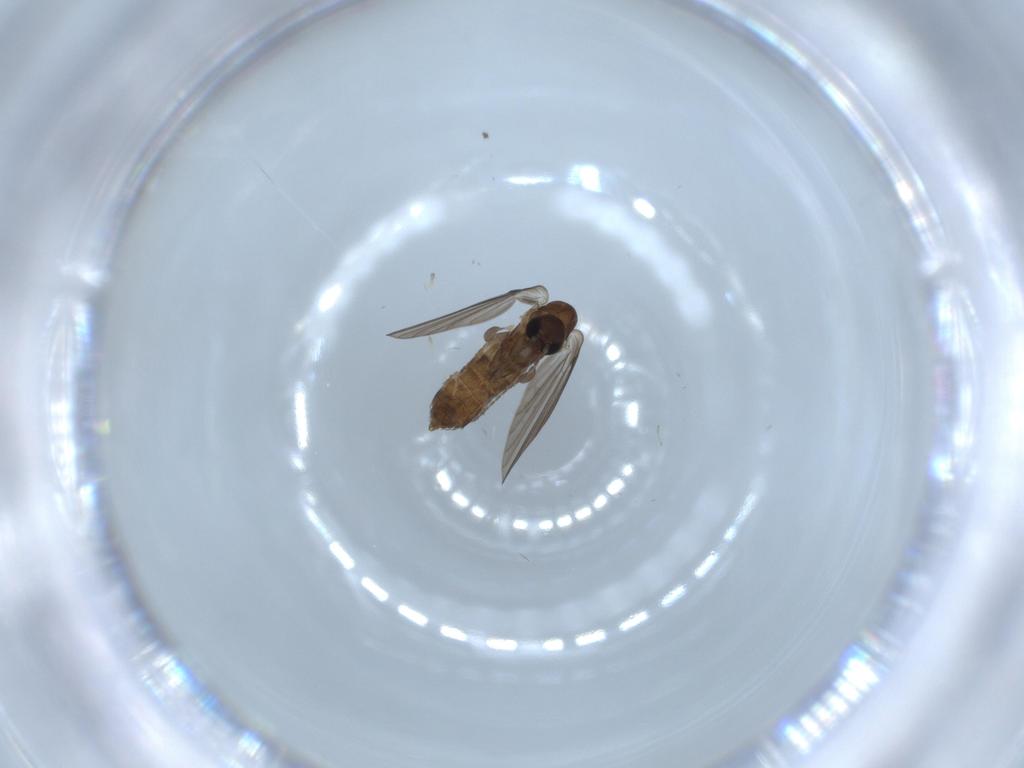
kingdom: Animalia
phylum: Arthropoda
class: Insecta
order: Diptera
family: Psychodidae
